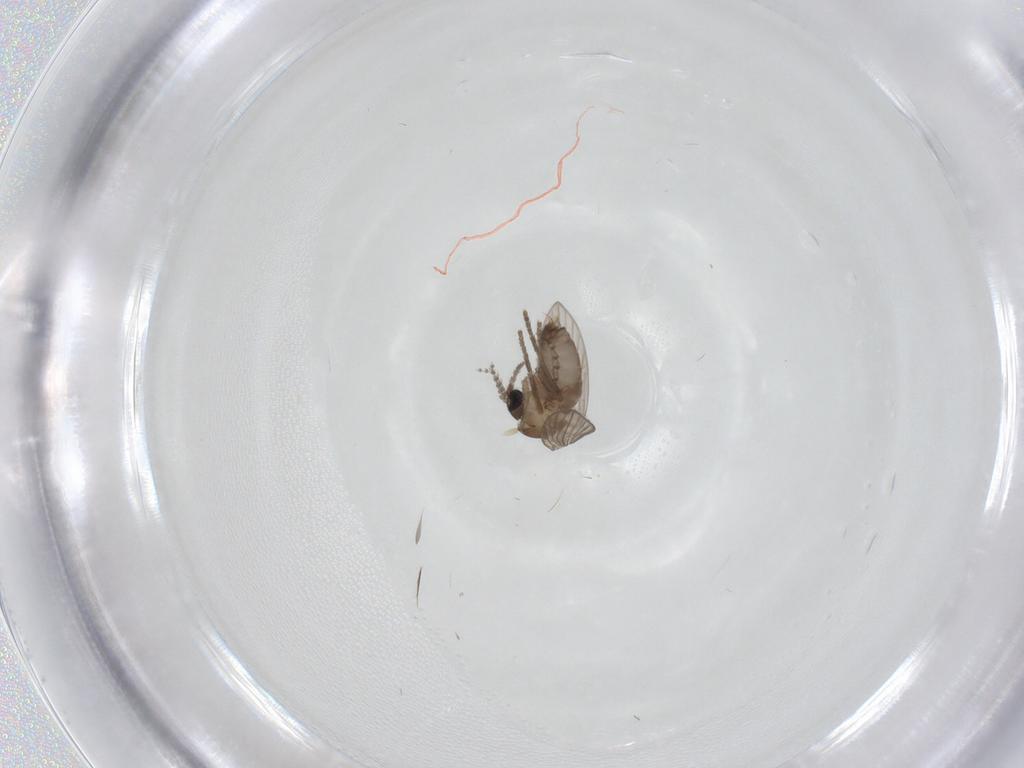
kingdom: Animalia
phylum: Arthropoda
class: Insecta
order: Diptera
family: Psychodidae
